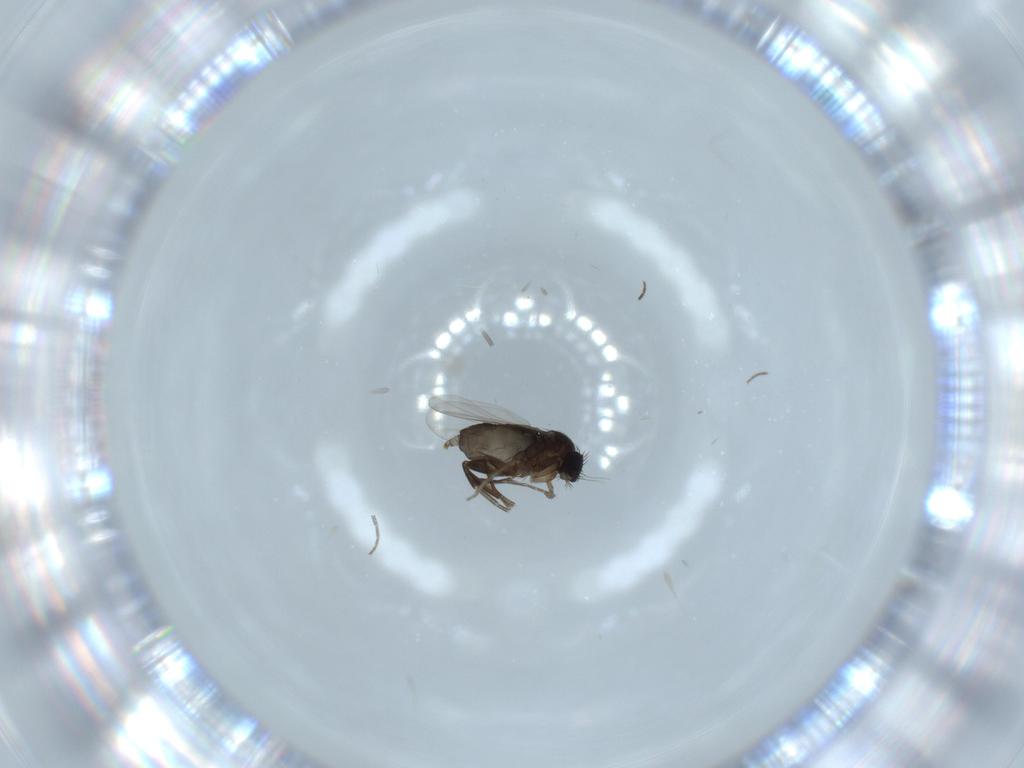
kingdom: Animalia
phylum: Arthropoda
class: Insecta
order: Diptera
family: Phoridae
